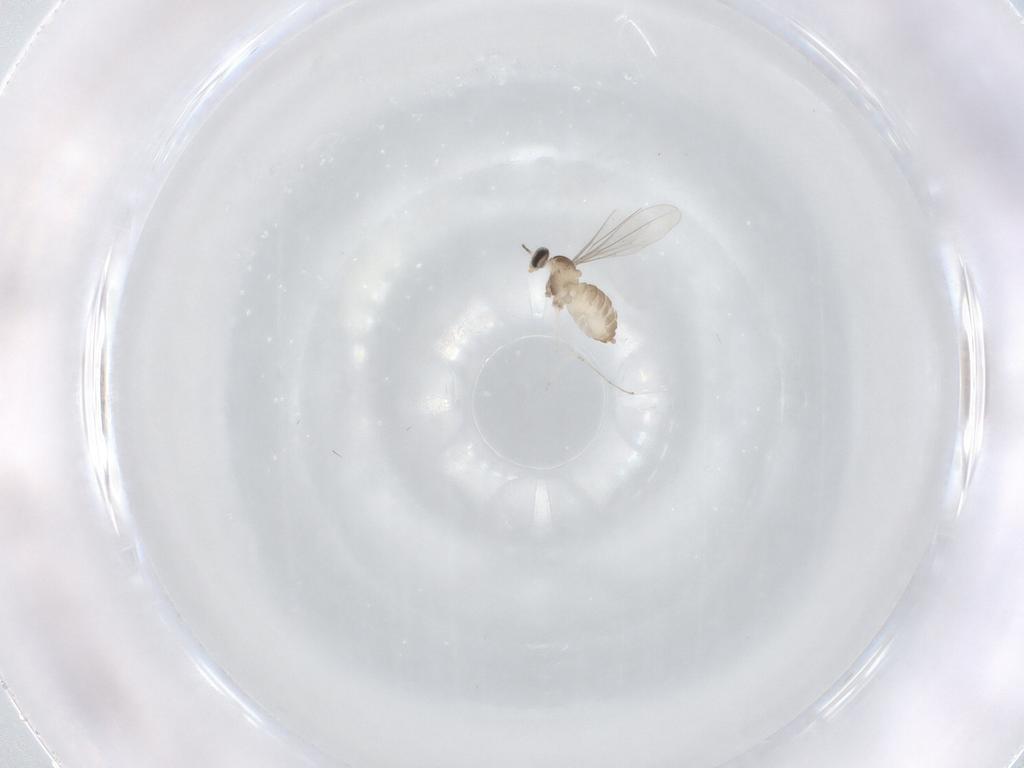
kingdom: Animalia
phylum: Arthropoda
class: Insecta
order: Diptera
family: Cecidomyiidae
